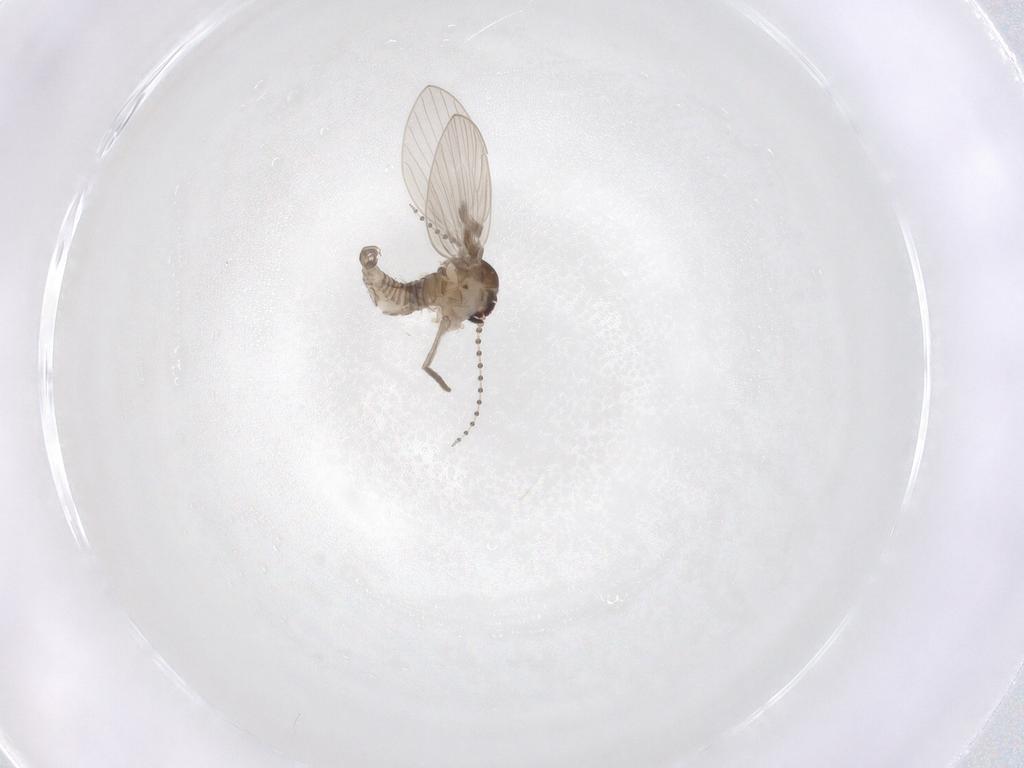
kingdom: Animalia
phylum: Arthropoda
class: Insecta
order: Diptera
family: Psychodidae
